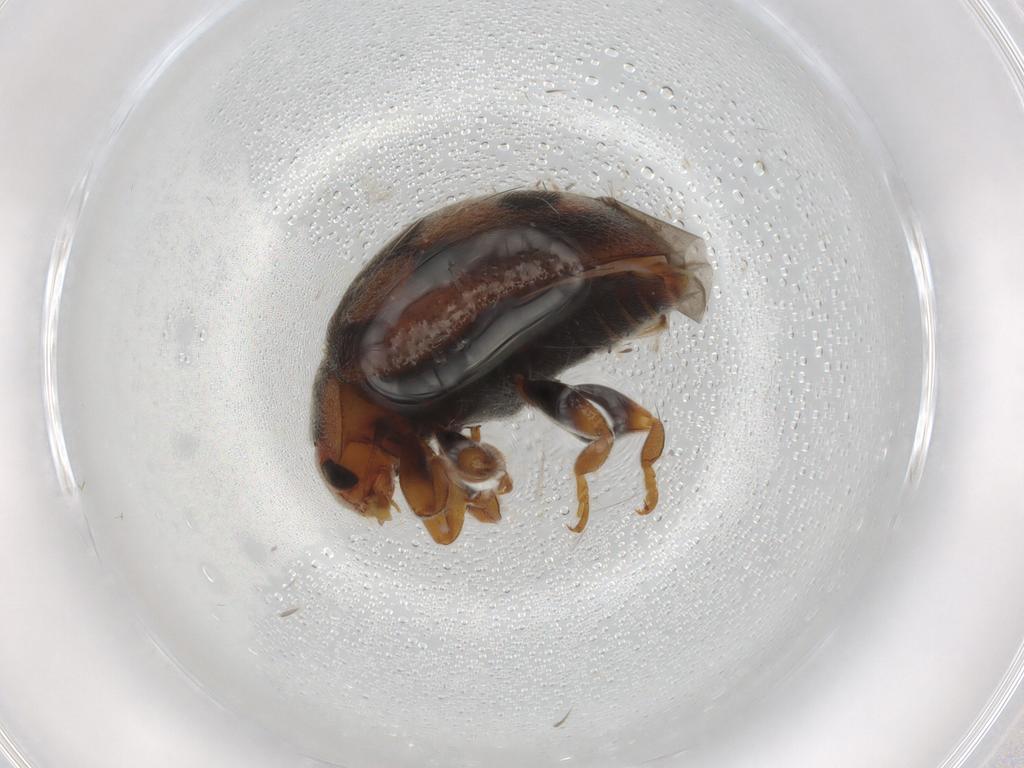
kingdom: Animalia
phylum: Arthropoda
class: Insecta
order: Coleoptera
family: Coccinellidae
